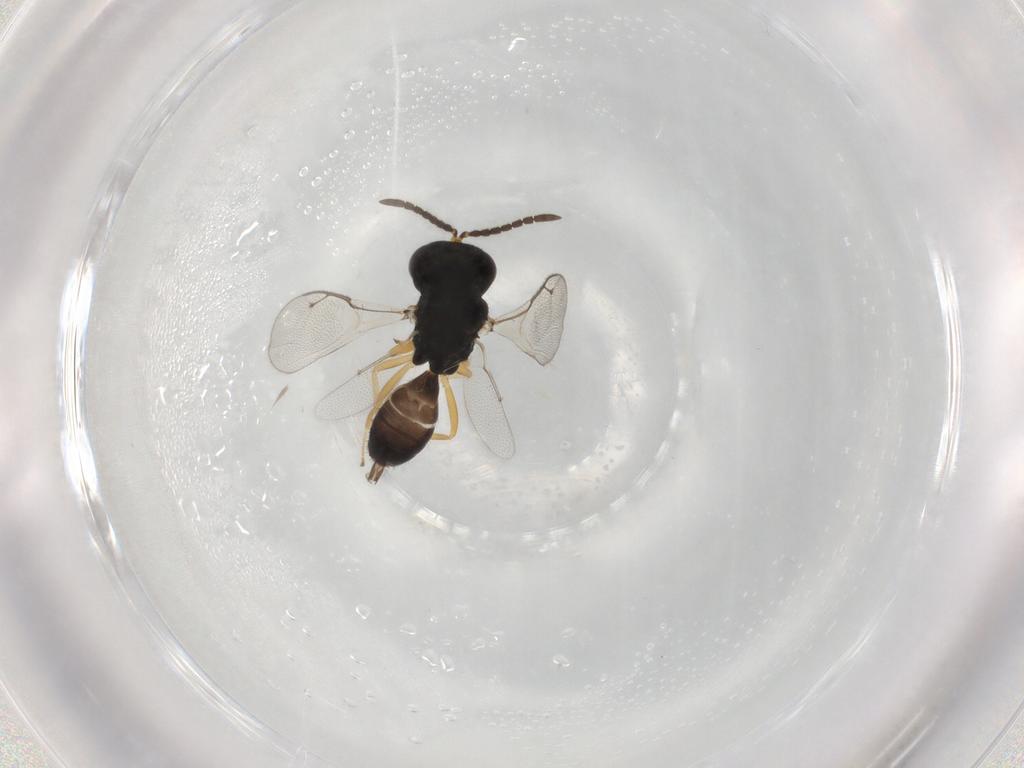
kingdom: Animalia
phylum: Arthropoda
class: Insecta
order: Hymenoptera
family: Pteromalidae
